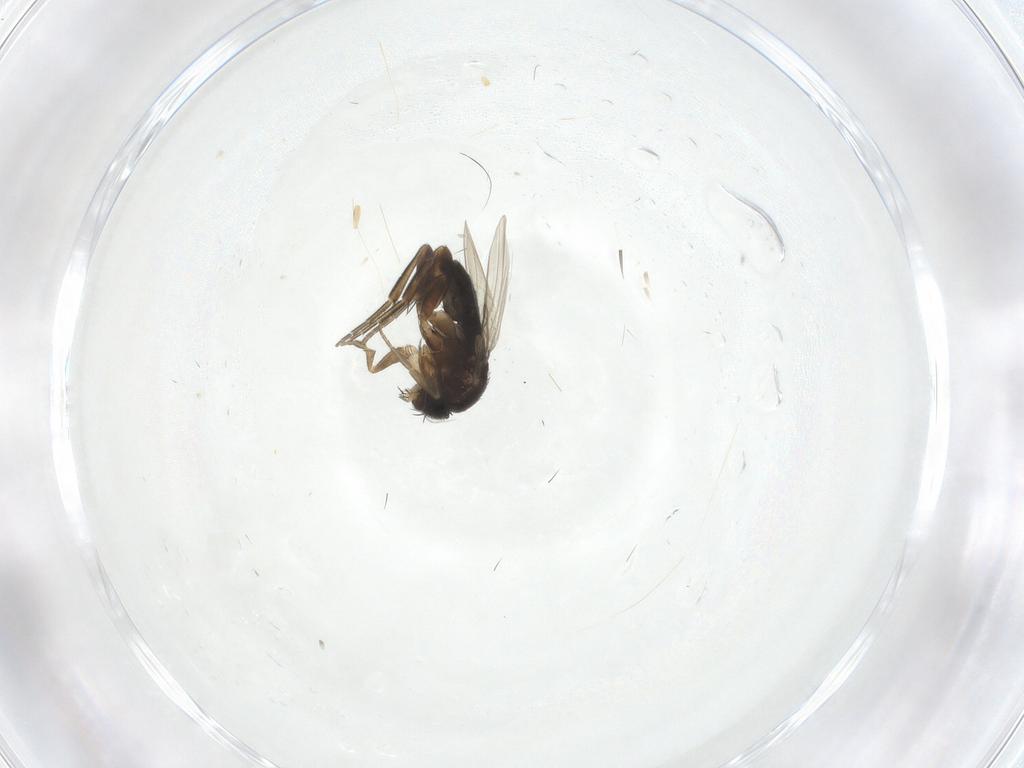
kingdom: Animalia
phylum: Arthropoda
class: Insecta
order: Diptera
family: Phoridae
